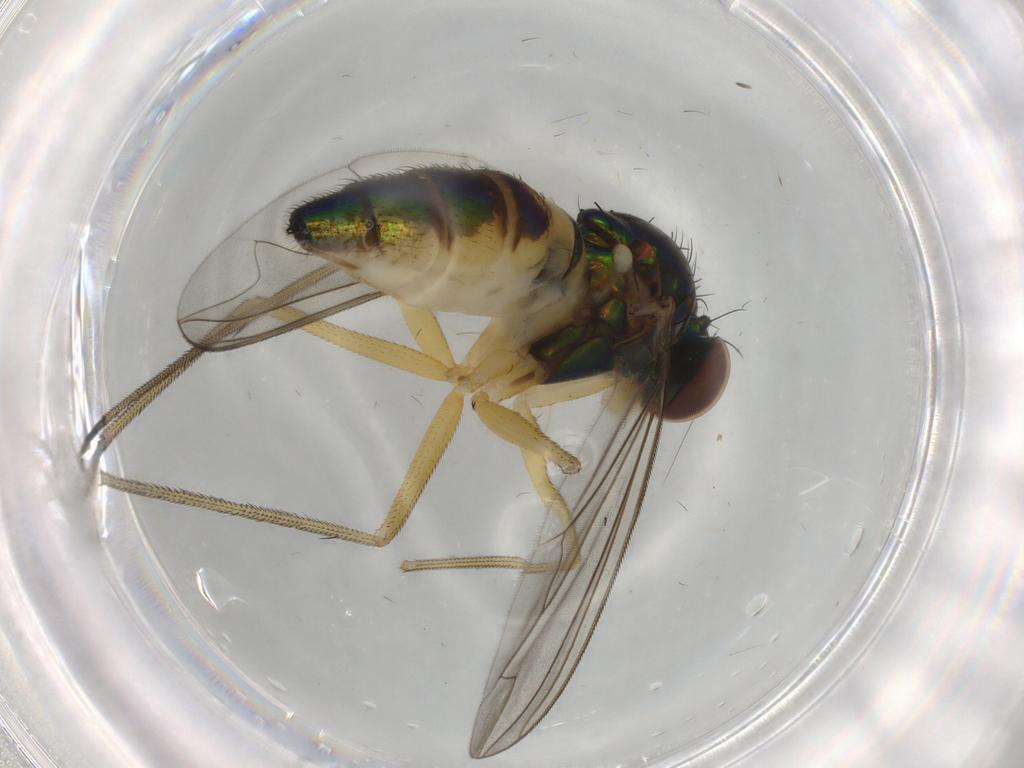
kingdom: Animalia
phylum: Arthropoda
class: Insecta
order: Diptera
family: Dolichopodidae
